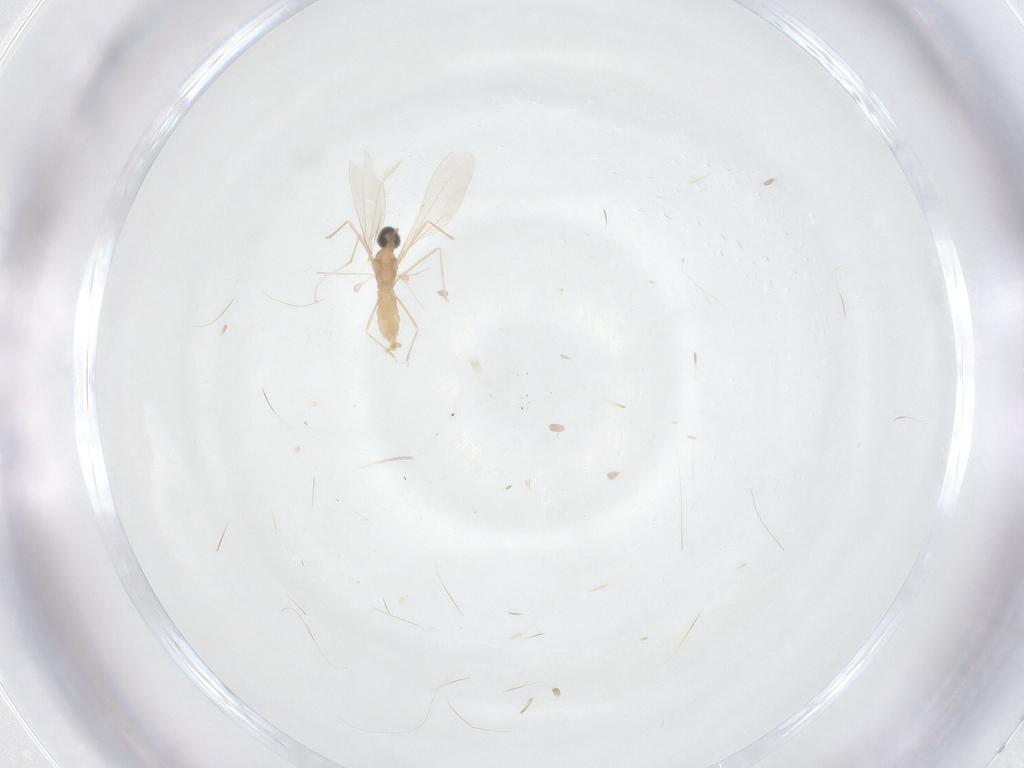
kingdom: Animalia
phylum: Arthropoda
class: Insecta
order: Diptera
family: Cecidomyiidae
